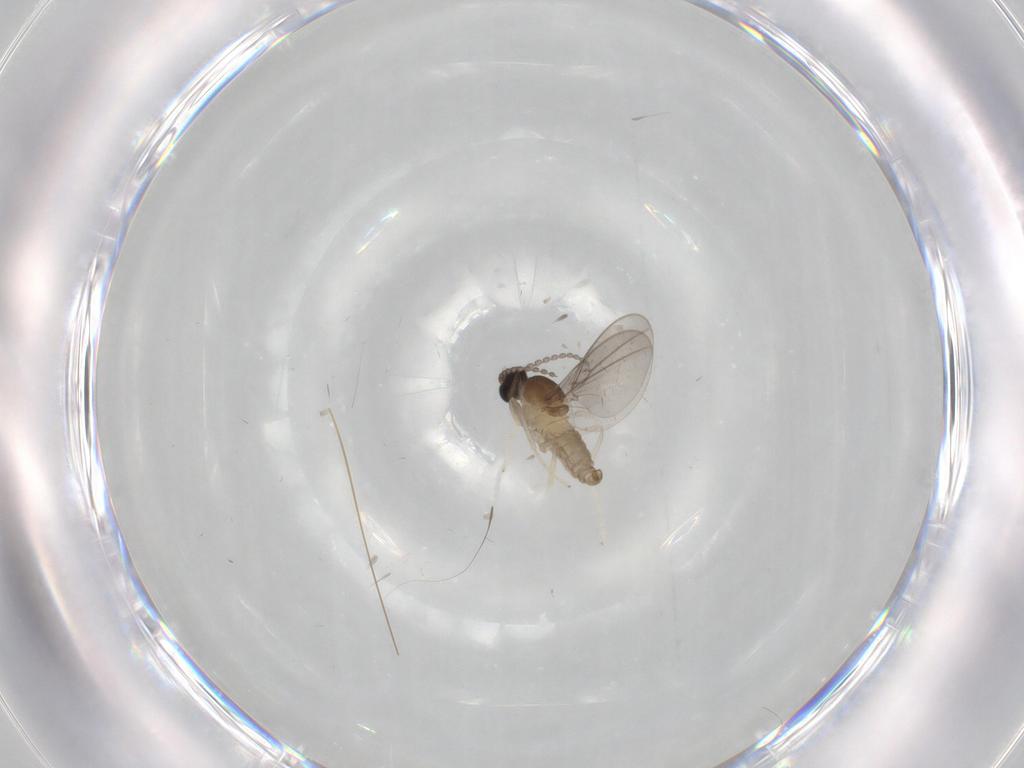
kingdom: Animalia
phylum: Arthropoda
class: Insecta
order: Diptera
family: Cecidomyiidae
